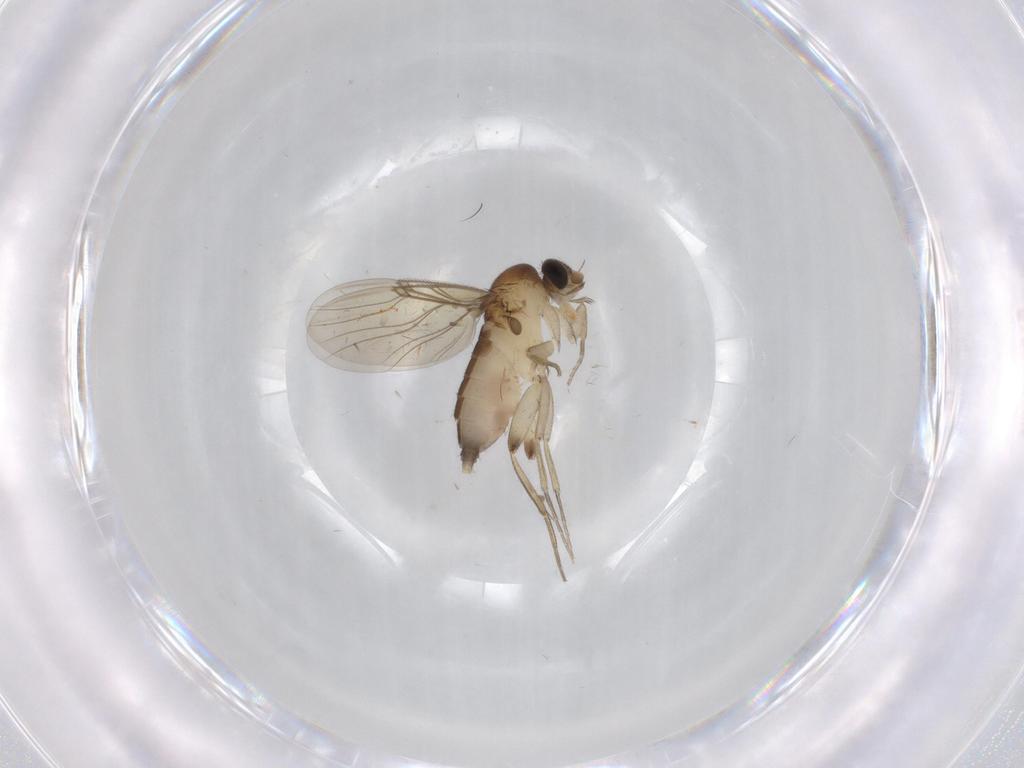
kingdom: Animalia
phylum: Arthropoda
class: Insecta
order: Diptera
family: Phoridae
